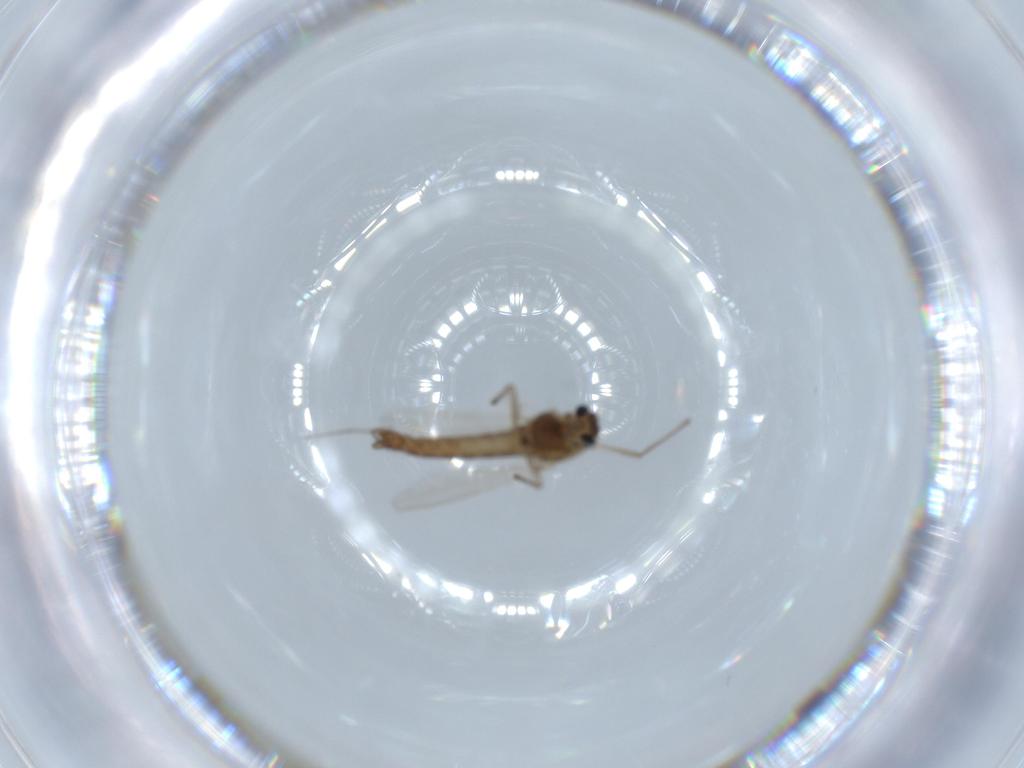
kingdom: Animalia
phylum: Arthropoda
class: Insecta
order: Diptera
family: Chironomidae
